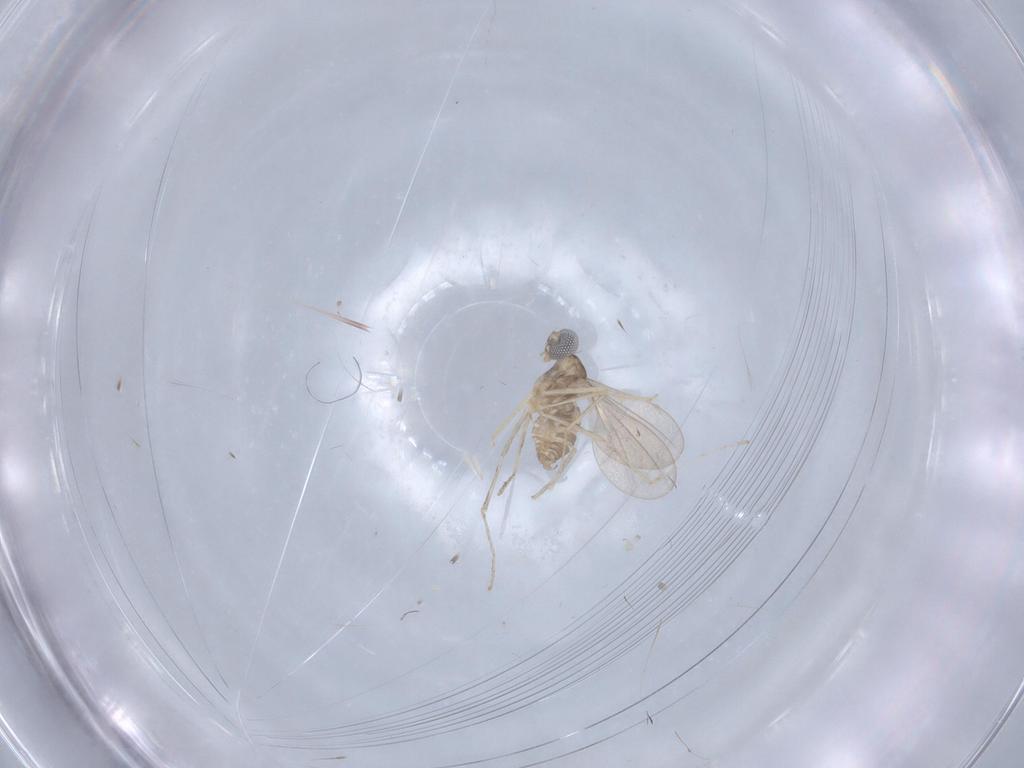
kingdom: Animalia
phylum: Arthropoda
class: Insecta
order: Diptera
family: Cecidomyiidae
